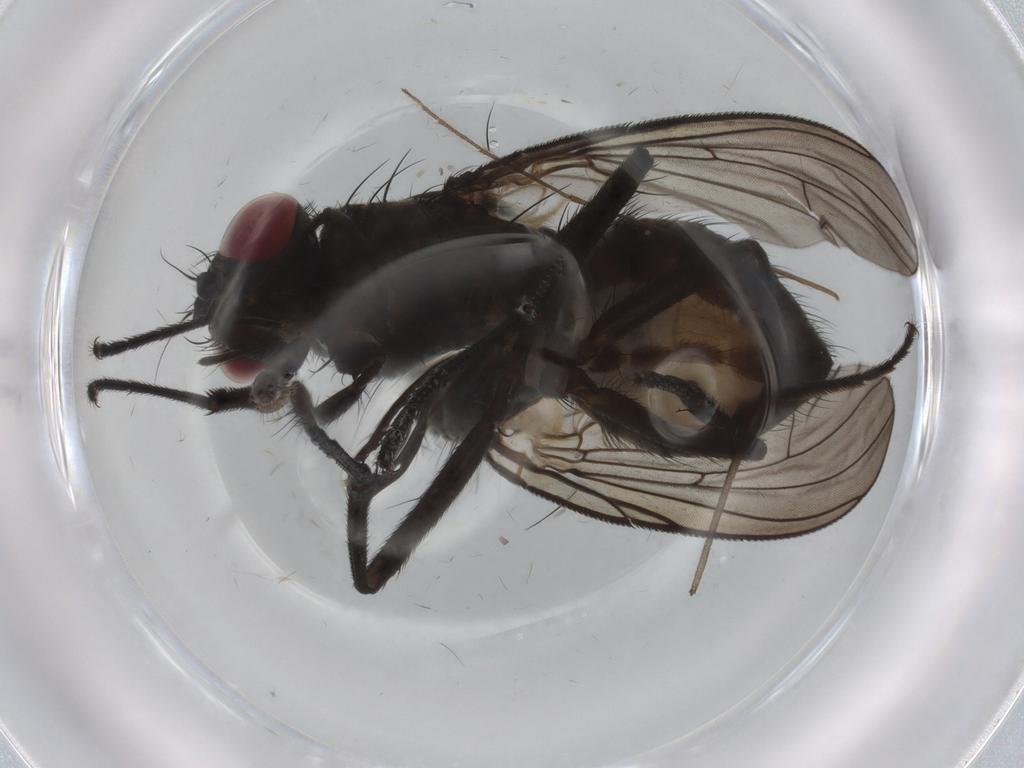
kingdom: Animalia
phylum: Arthropoda
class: Insecta
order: Diptera
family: Muscidae
